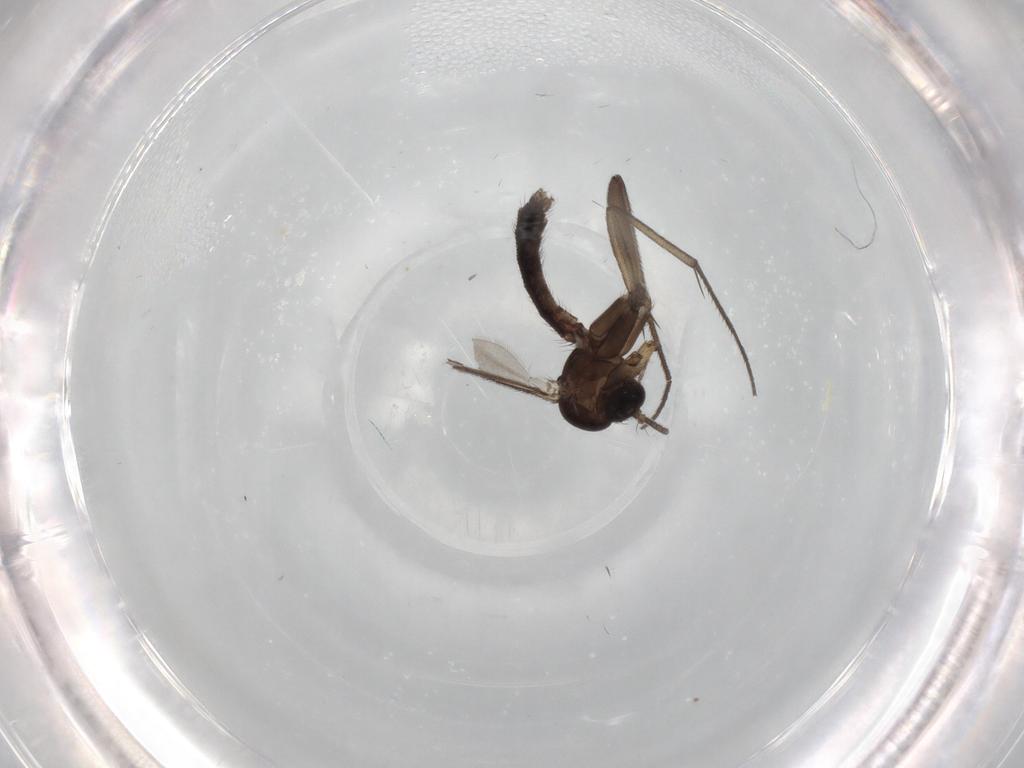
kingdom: Animalia
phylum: Arthropoda
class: Insecta
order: Diptera
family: Mycetophilidae
